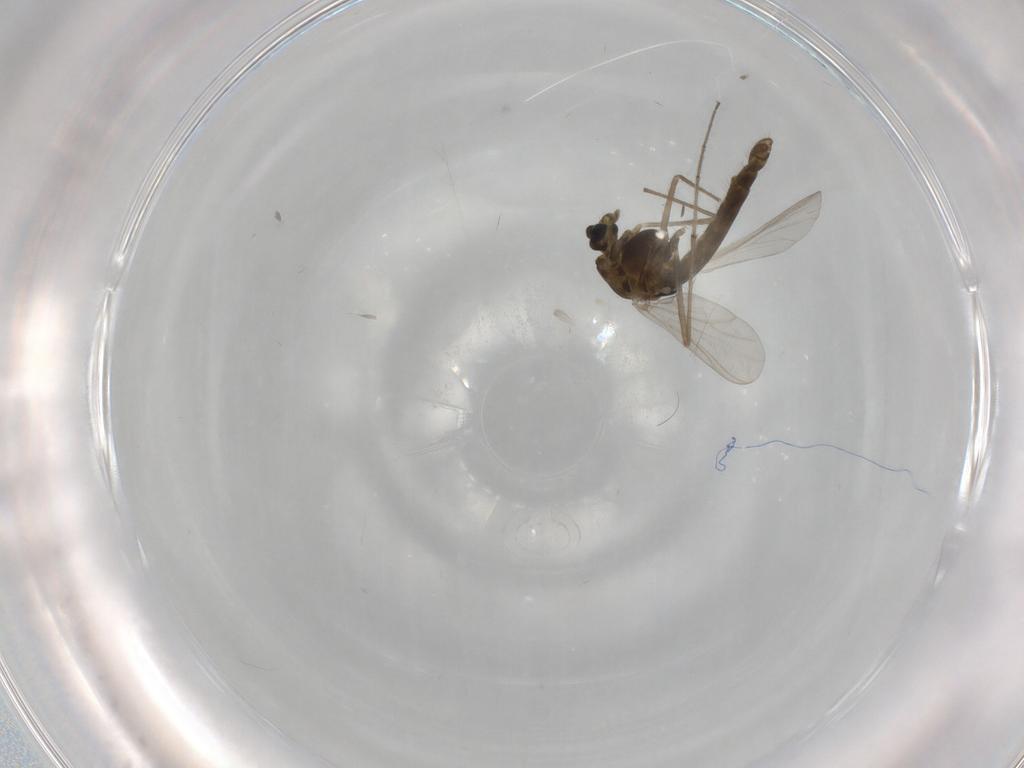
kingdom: Animalia
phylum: Arthropoda
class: Insecta
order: Diptera
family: Chironomidae
